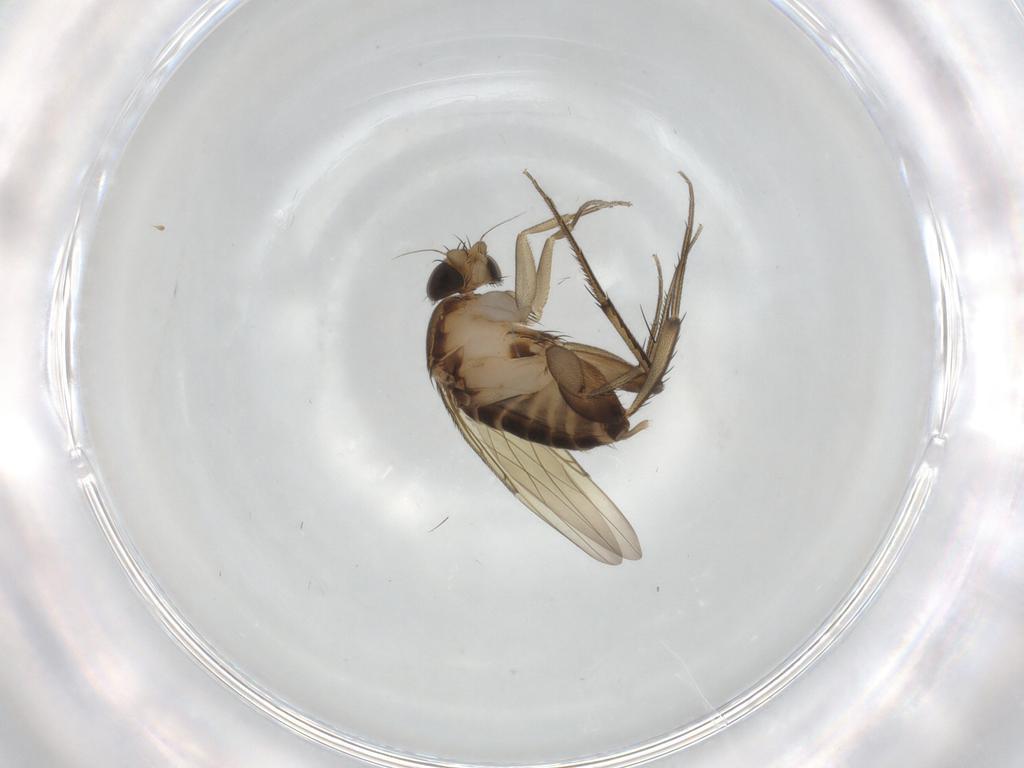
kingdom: Animalia
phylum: Arthropoda
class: Insecta
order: Diptera
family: Phoridae
